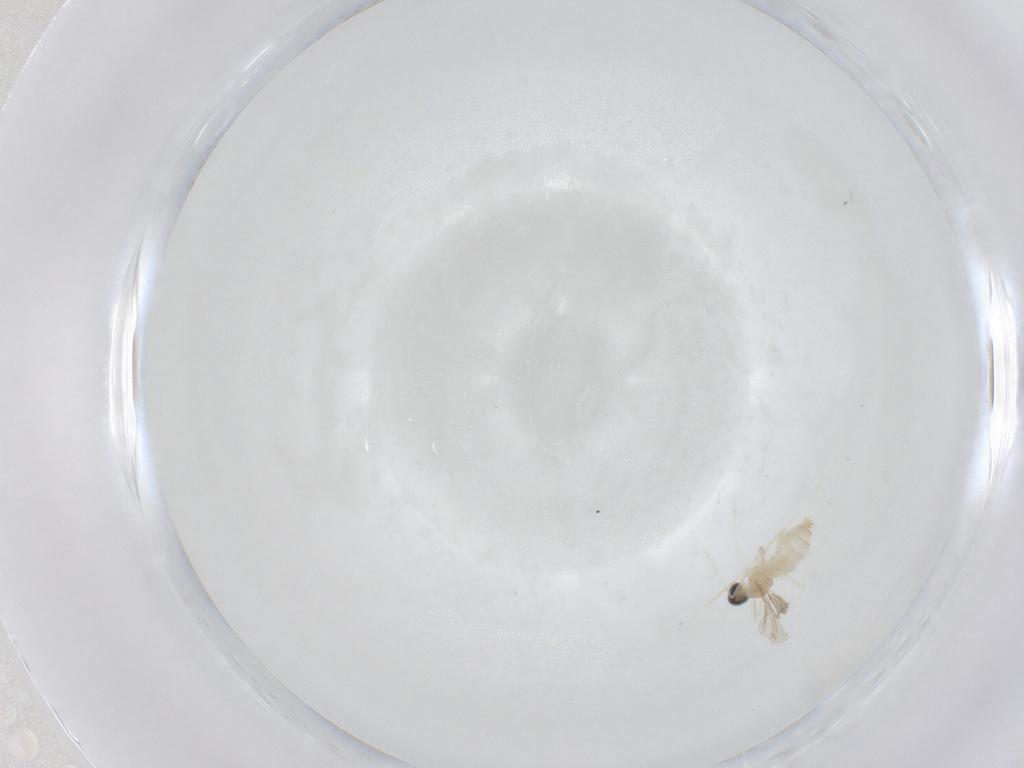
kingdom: Animalia
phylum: Arthropoda
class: Insecta
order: Diptera
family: Cecidomyiidae
